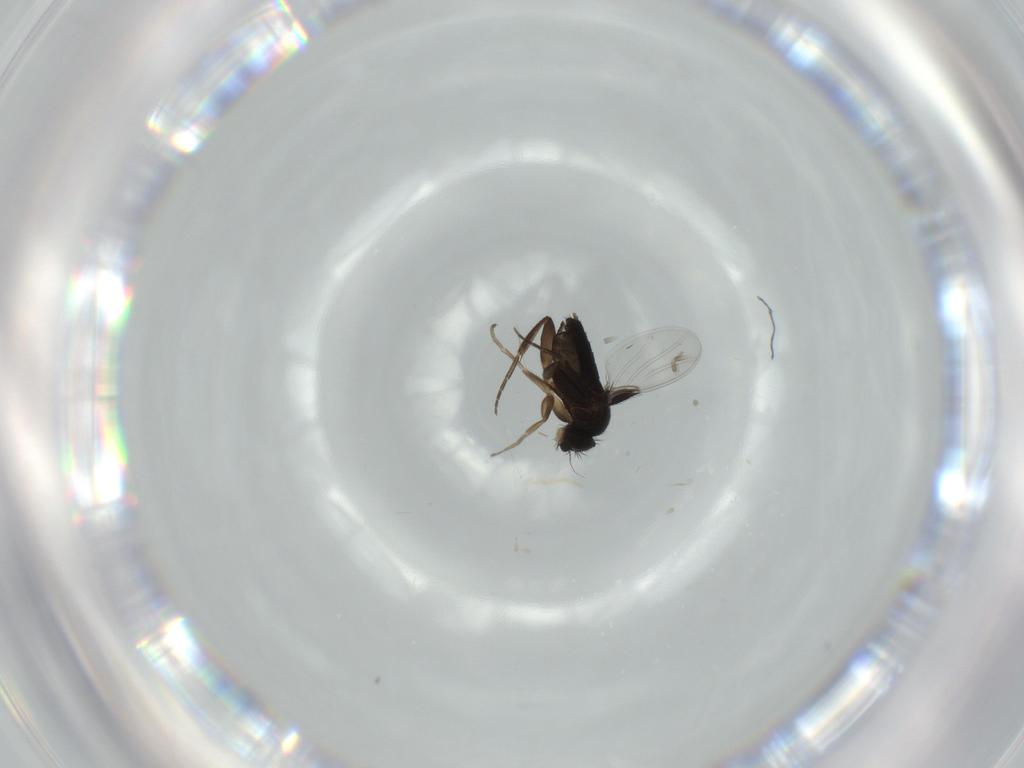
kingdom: Animalia
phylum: Arthropoda
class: Insecta
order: Diptera
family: Phoridae
